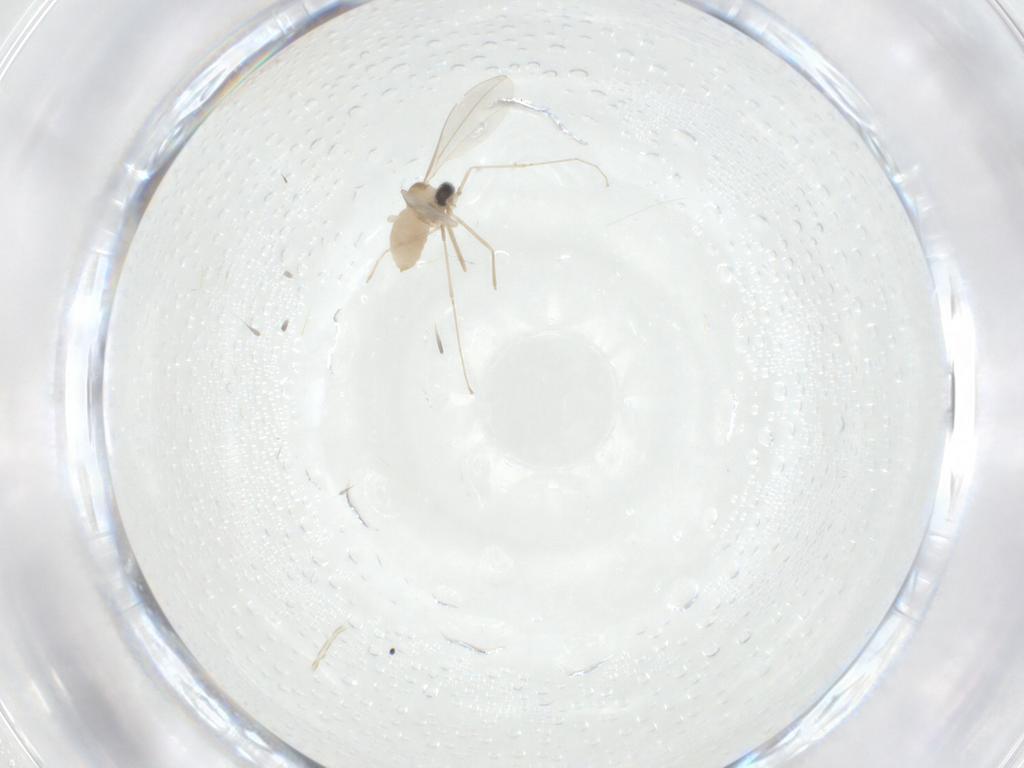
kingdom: Animalia
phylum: Arthropoda
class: Insecta
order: Diptera
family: Cecidomyiidae
